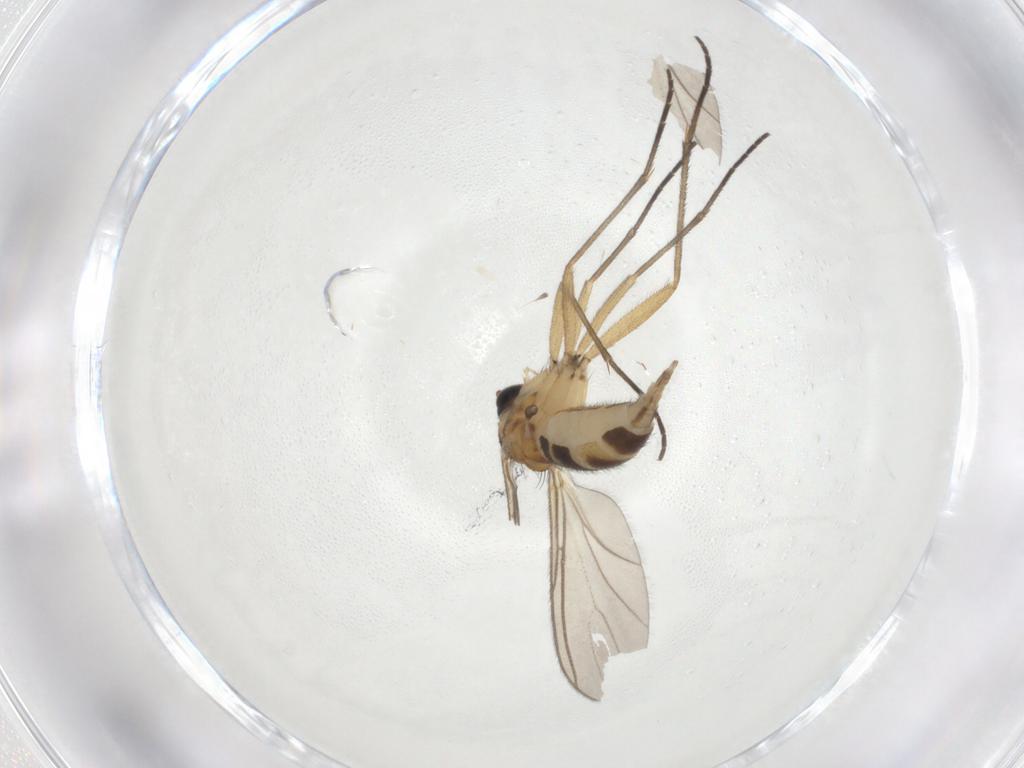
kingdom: Animalia
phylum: Arthropoda
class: Insecta
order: Diptera
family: Sciaridae
